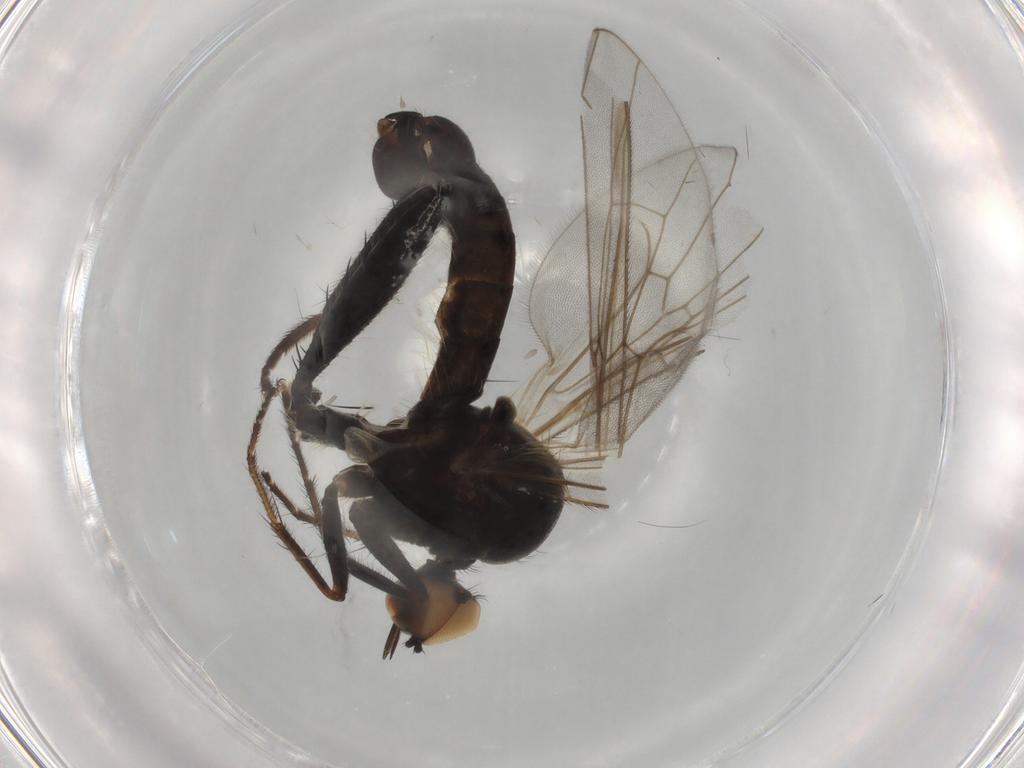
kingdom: Animalia
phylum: Arthropoda
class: Insecta
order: Diptera
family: Hybotidae
